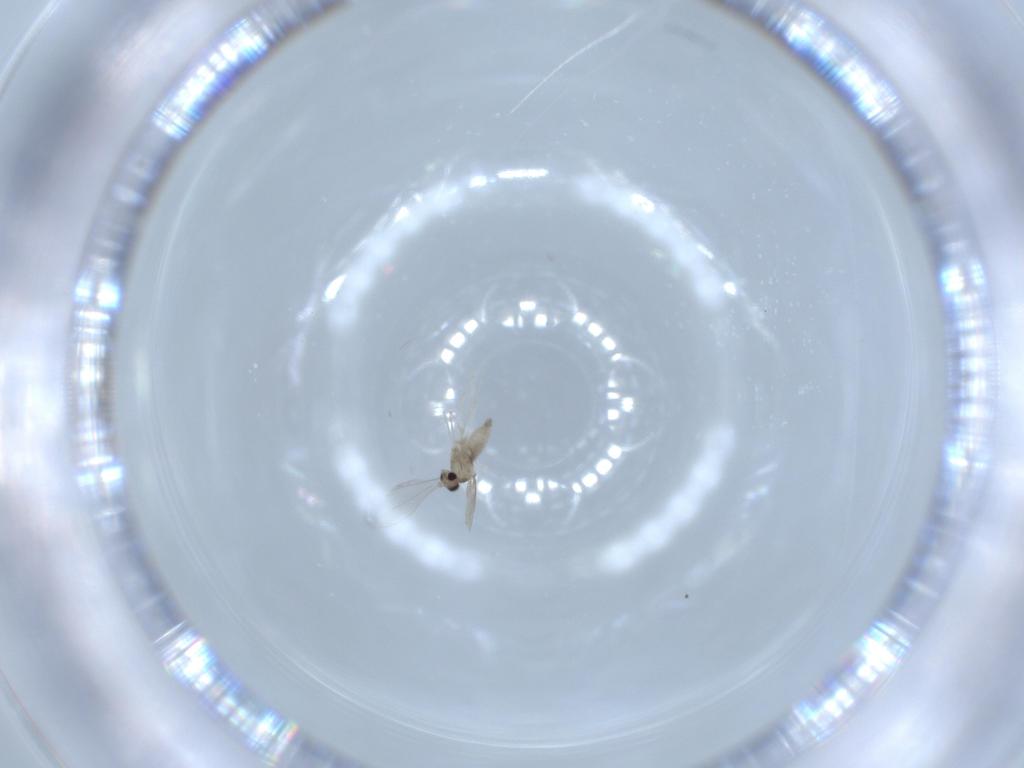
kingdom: Animalia
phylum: Arthropoda
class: Insecta
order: Diptera
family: Cecidomyiidae
